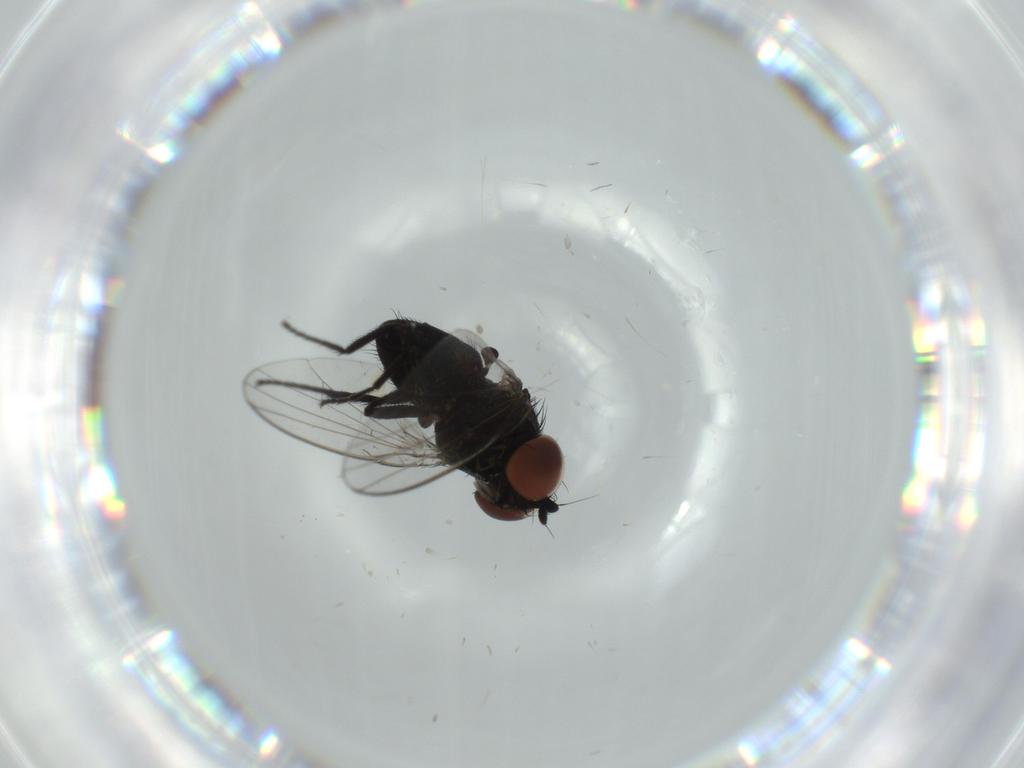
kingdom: Animalia
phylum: Arthropoda
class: Insecta
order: Diptera
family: Milichiidae
